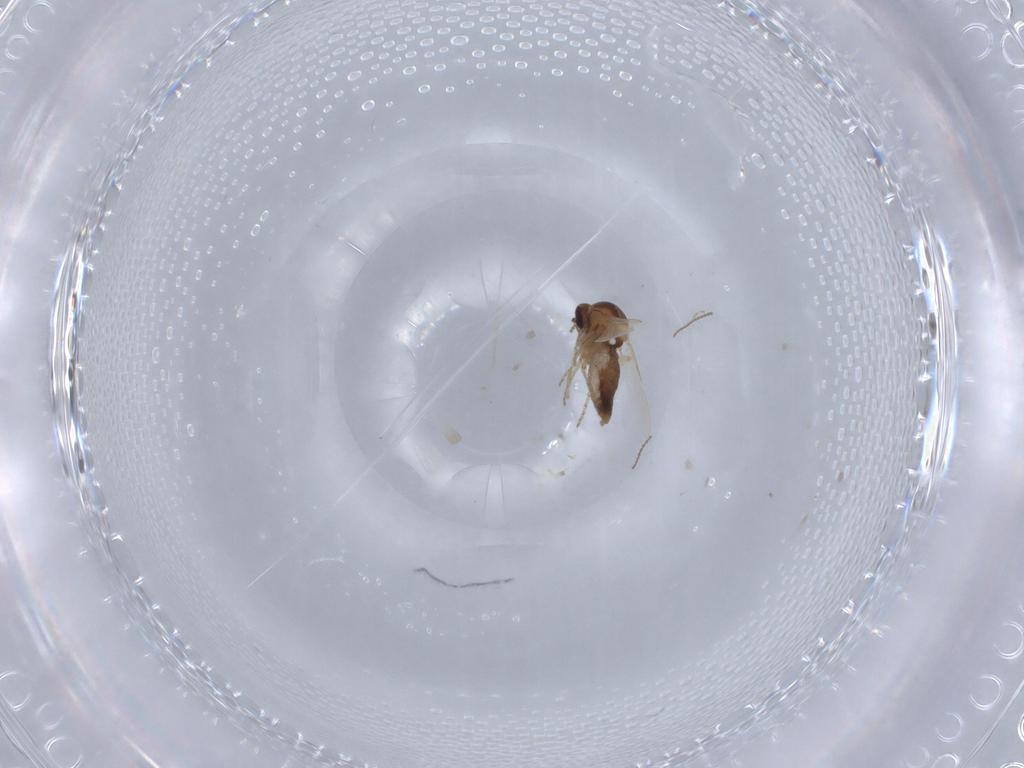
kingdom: Animalia
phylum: Arthropoda
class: Insecta
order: Diptera
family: Ceratopogonidae
